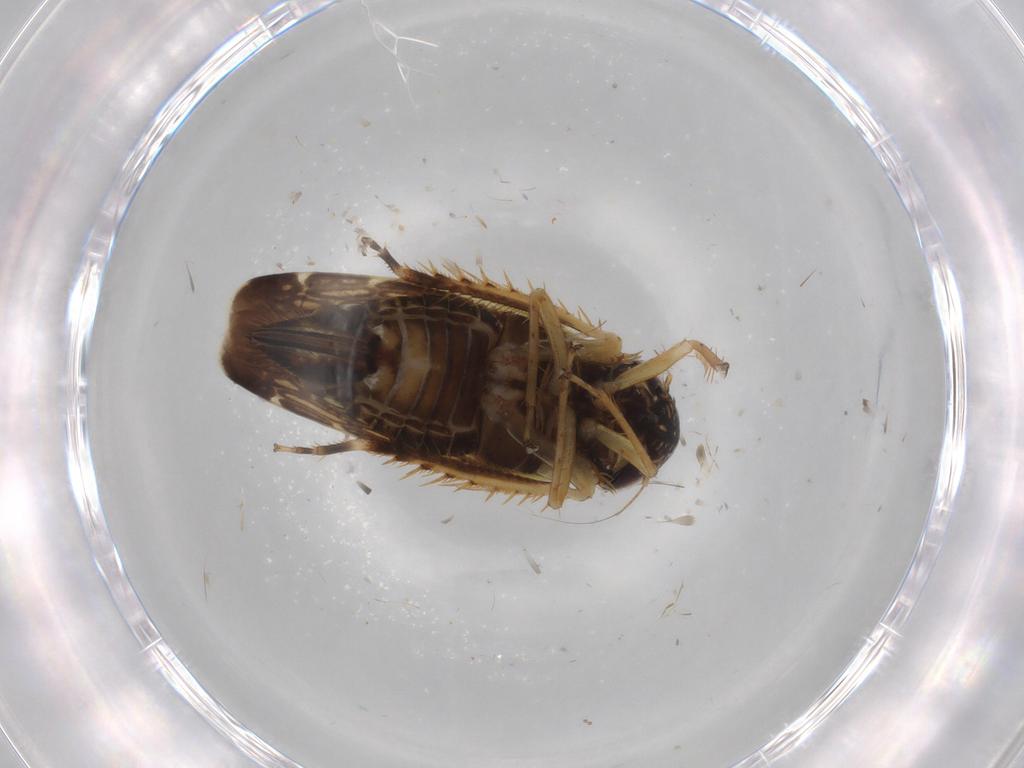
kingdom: Animalia
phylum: Arthropoda
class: Insecta
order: Hemiptera
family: Cicadellidae
